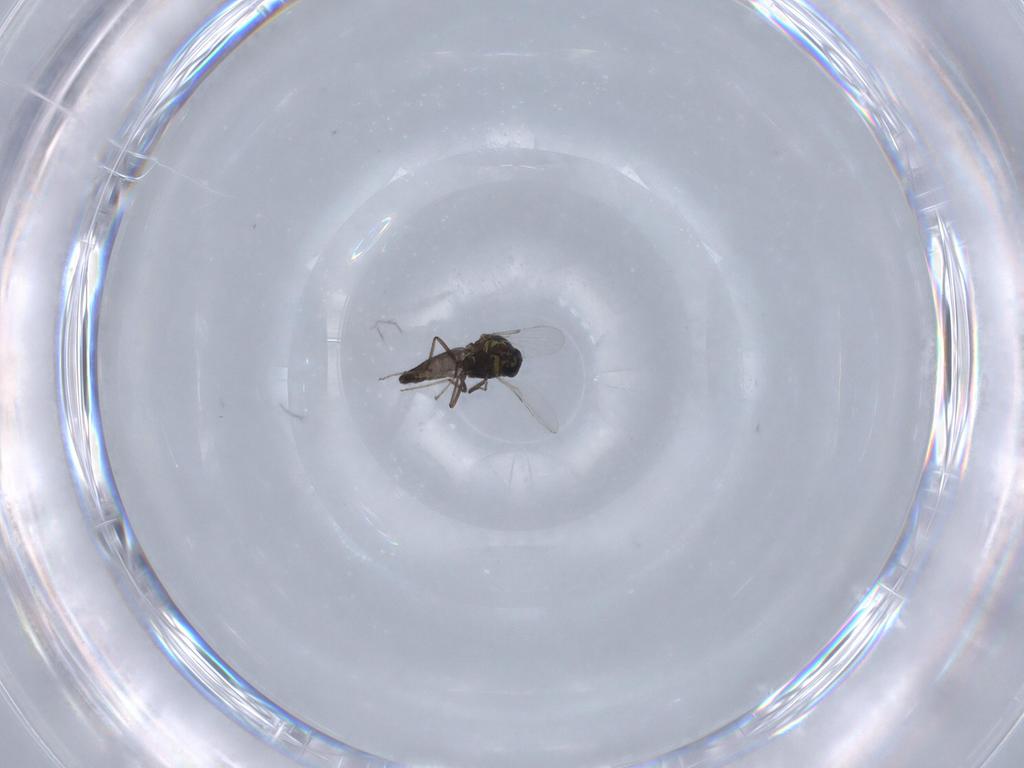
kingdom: Animalia
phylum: Arthropoda
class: Insecta
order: Diptera
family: Ceratopogonidae
